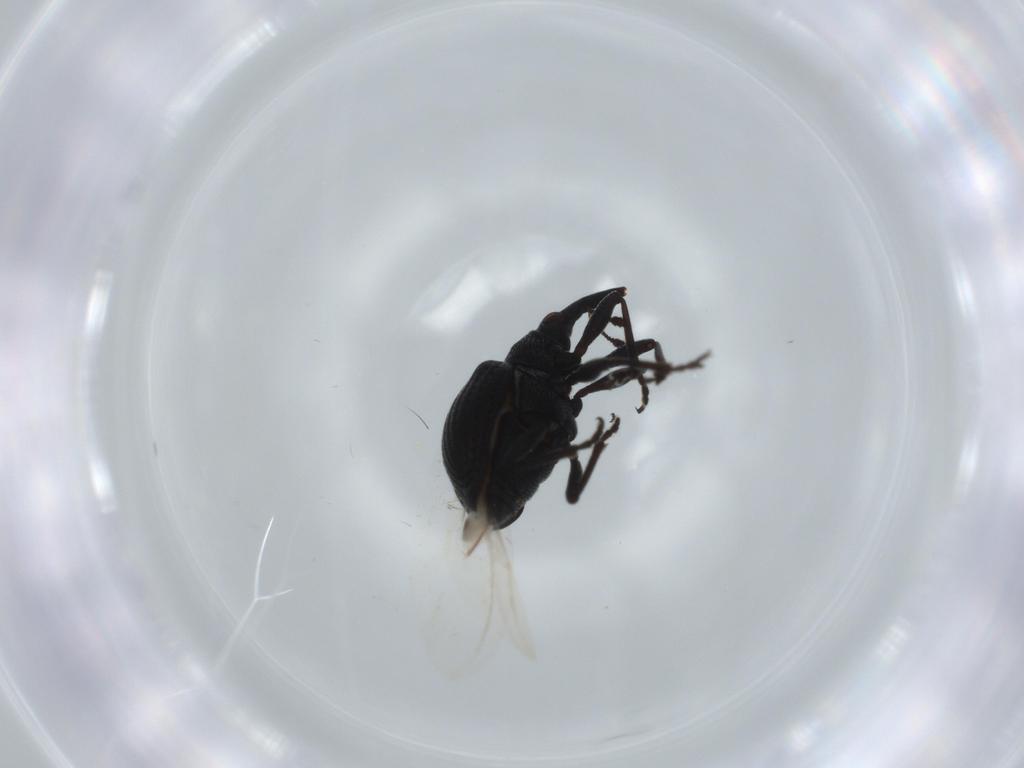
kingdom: Animalia
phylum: Arthropoda
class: Insecta
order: Coleoptera
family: Brentidae
